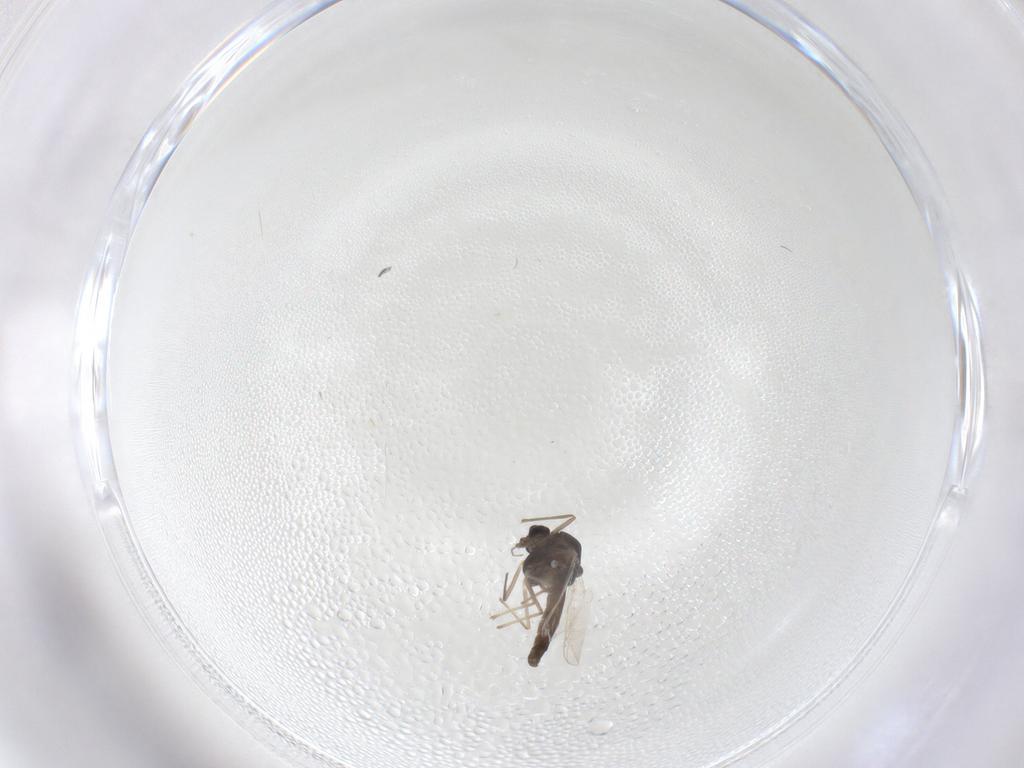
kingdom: Animalia
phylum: Arthropoda
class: Insecta
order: Diptera
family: Chironomidae
